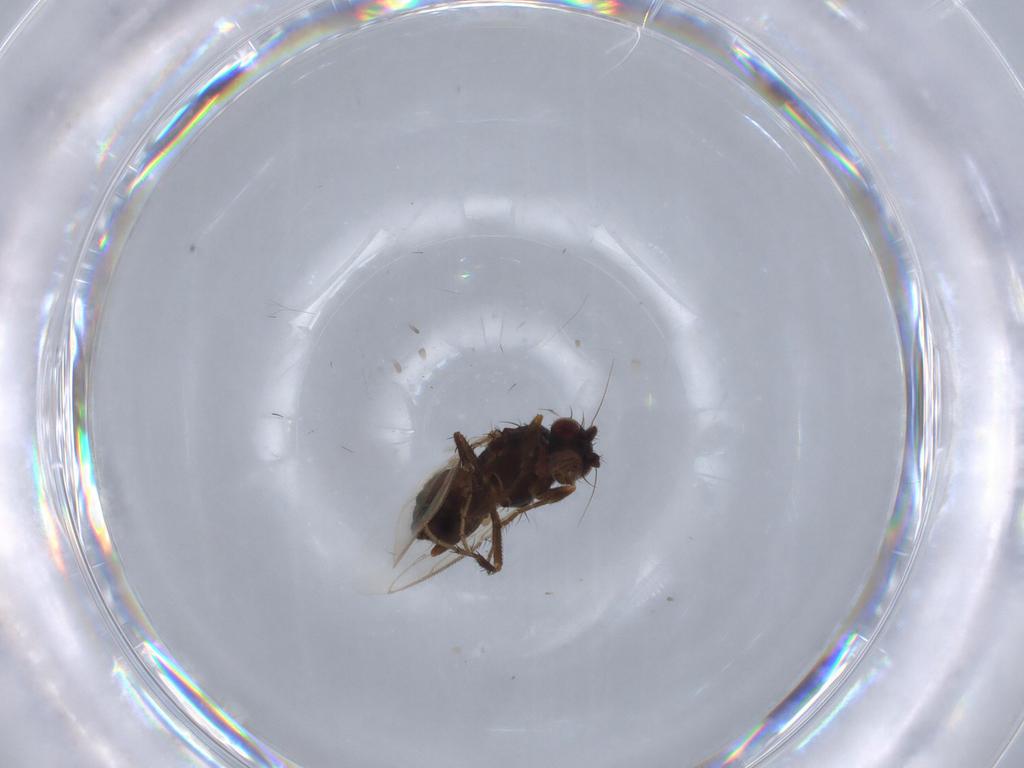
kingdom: Animalia
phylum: Arthropoda
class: Insecta
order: Diptera
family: Sphaeroceridae
